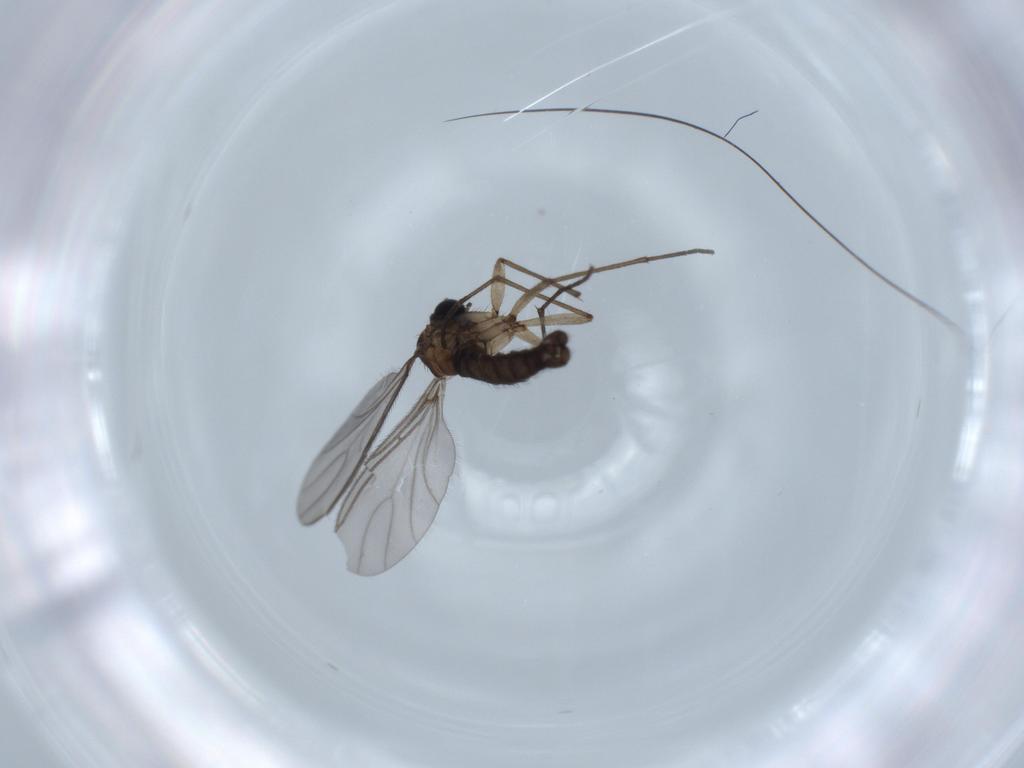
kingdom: Animalia
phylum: Arthropoda
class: Insecta
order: Diptera
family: Sciaridae
